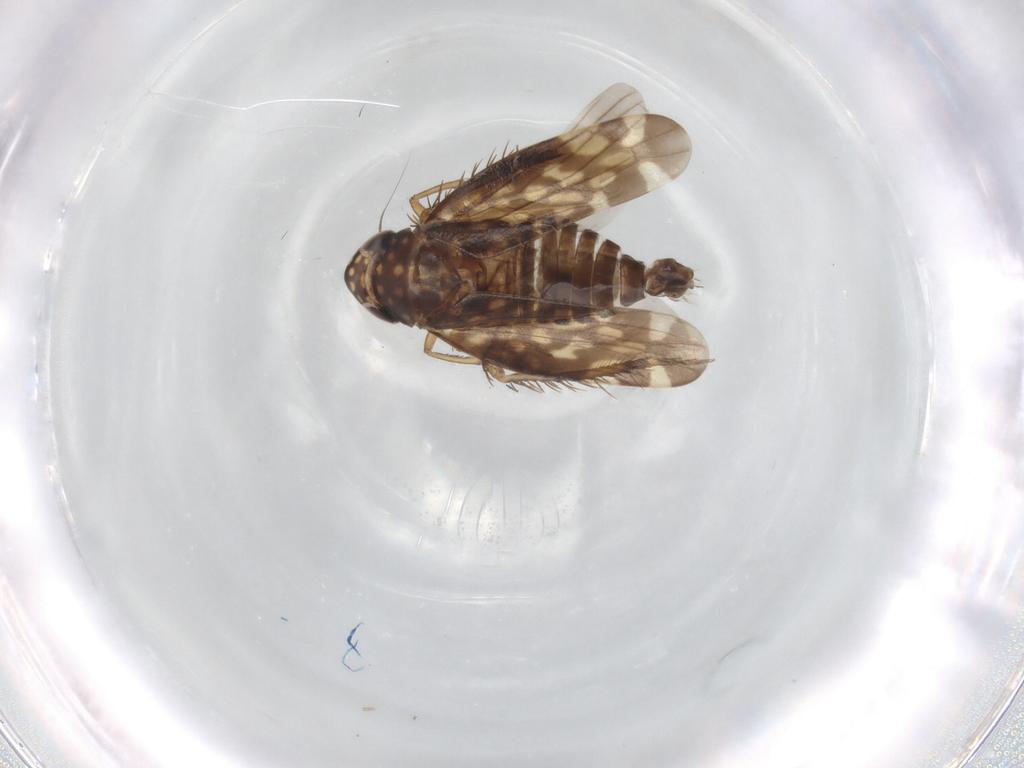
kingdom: Animalia
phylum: Arthropoda
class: Insecta
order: Hemiptera
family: Cicadellidae
